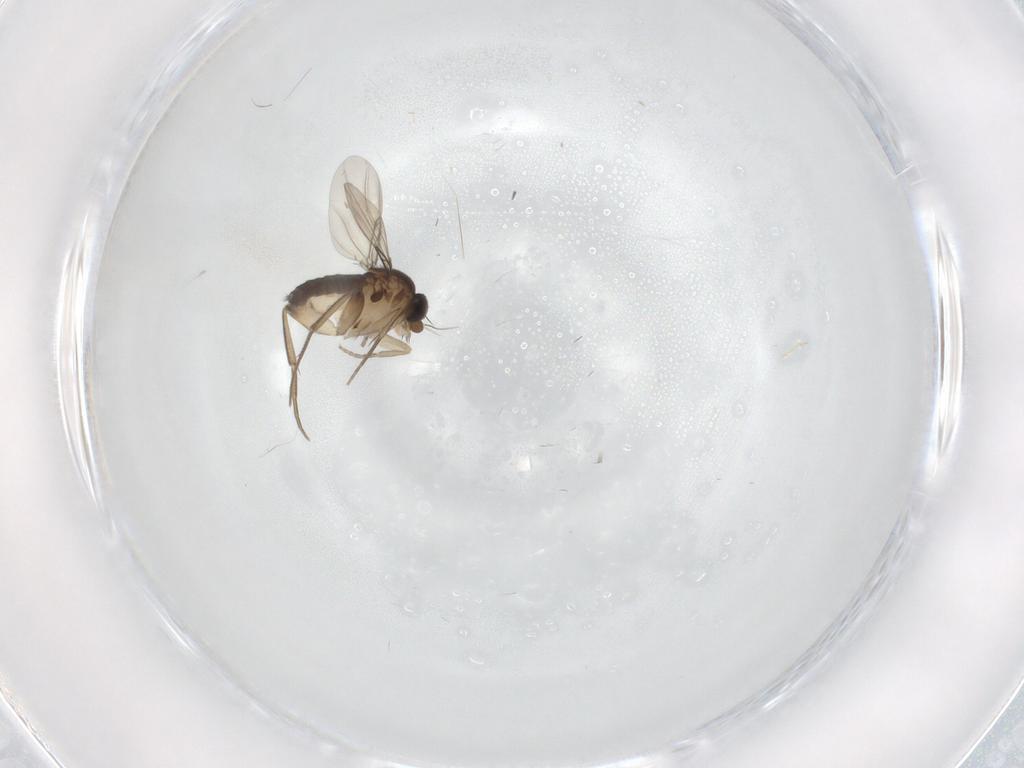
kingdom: Animalia
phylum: Arthropoda
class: Insecta
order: Diptera
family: Phoridae
